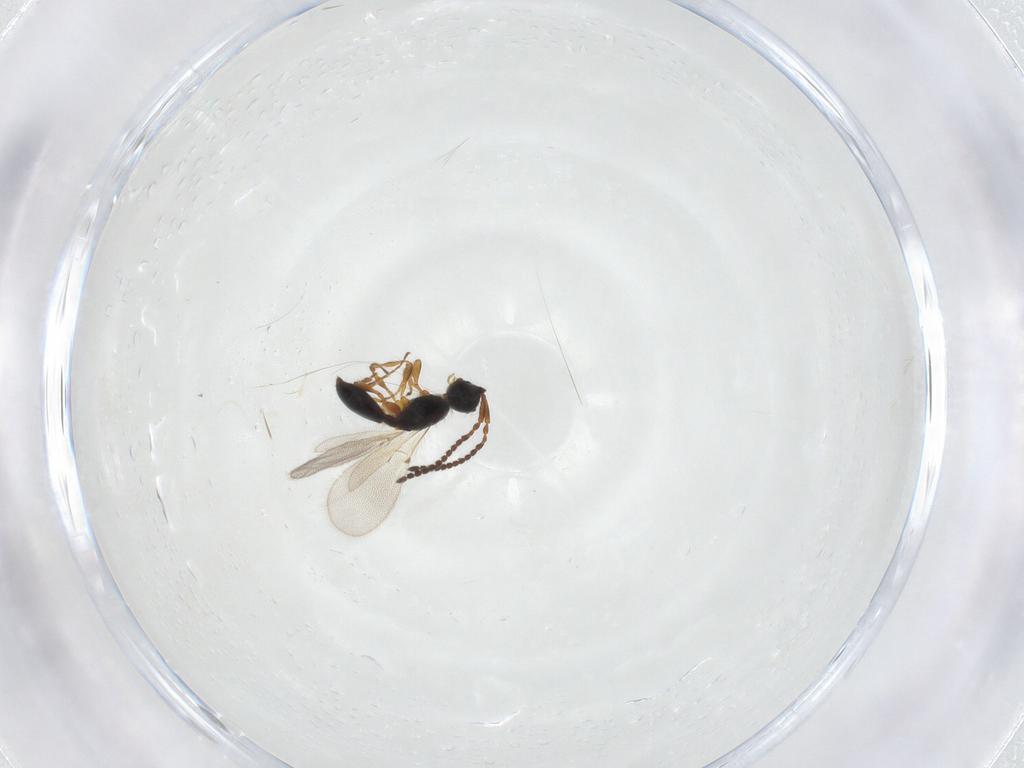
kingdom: Animalia
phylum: Arthropoda
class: Insecta
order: Hymenoptera
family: Diapriidae
